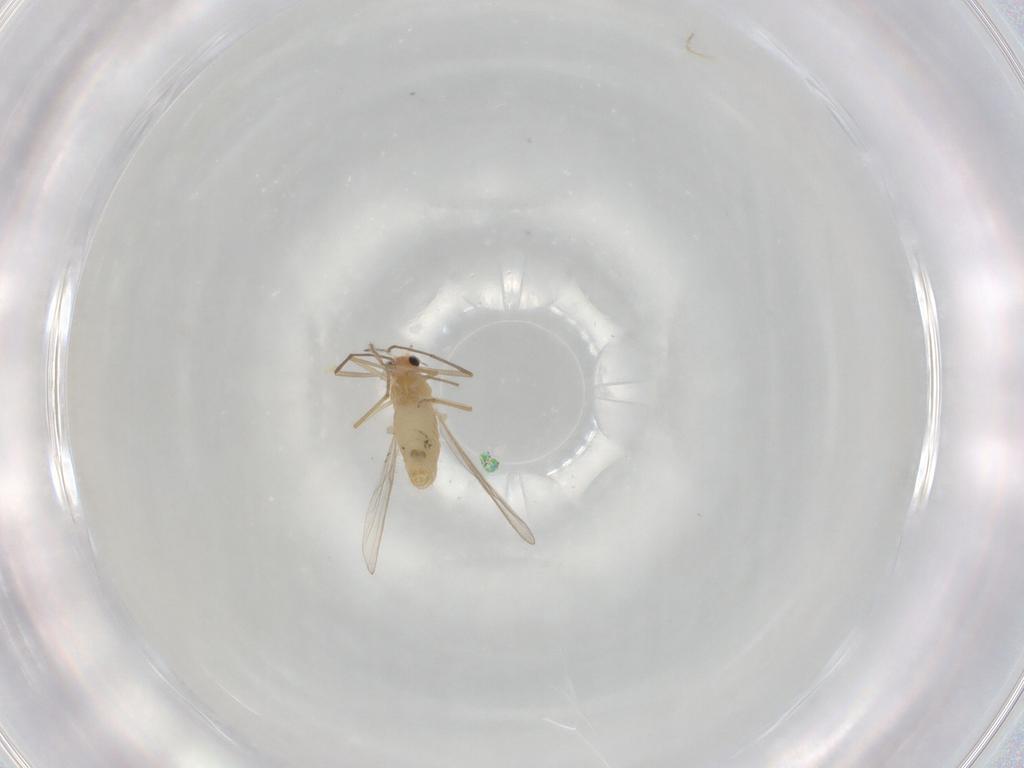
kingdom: Animalia
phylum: Arthropoda
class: Insecta
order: Diptera
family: Chironomidae
